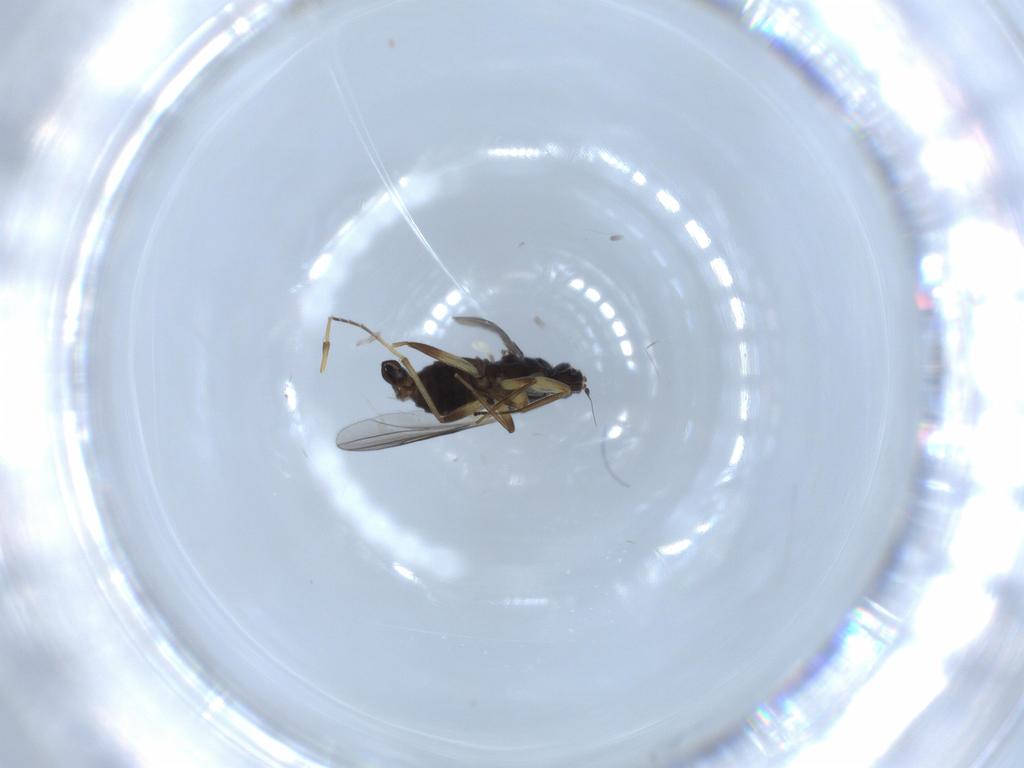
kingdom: Animalia
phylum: Arthropoda
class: Insecta
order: Diptera
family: Hybotidae
